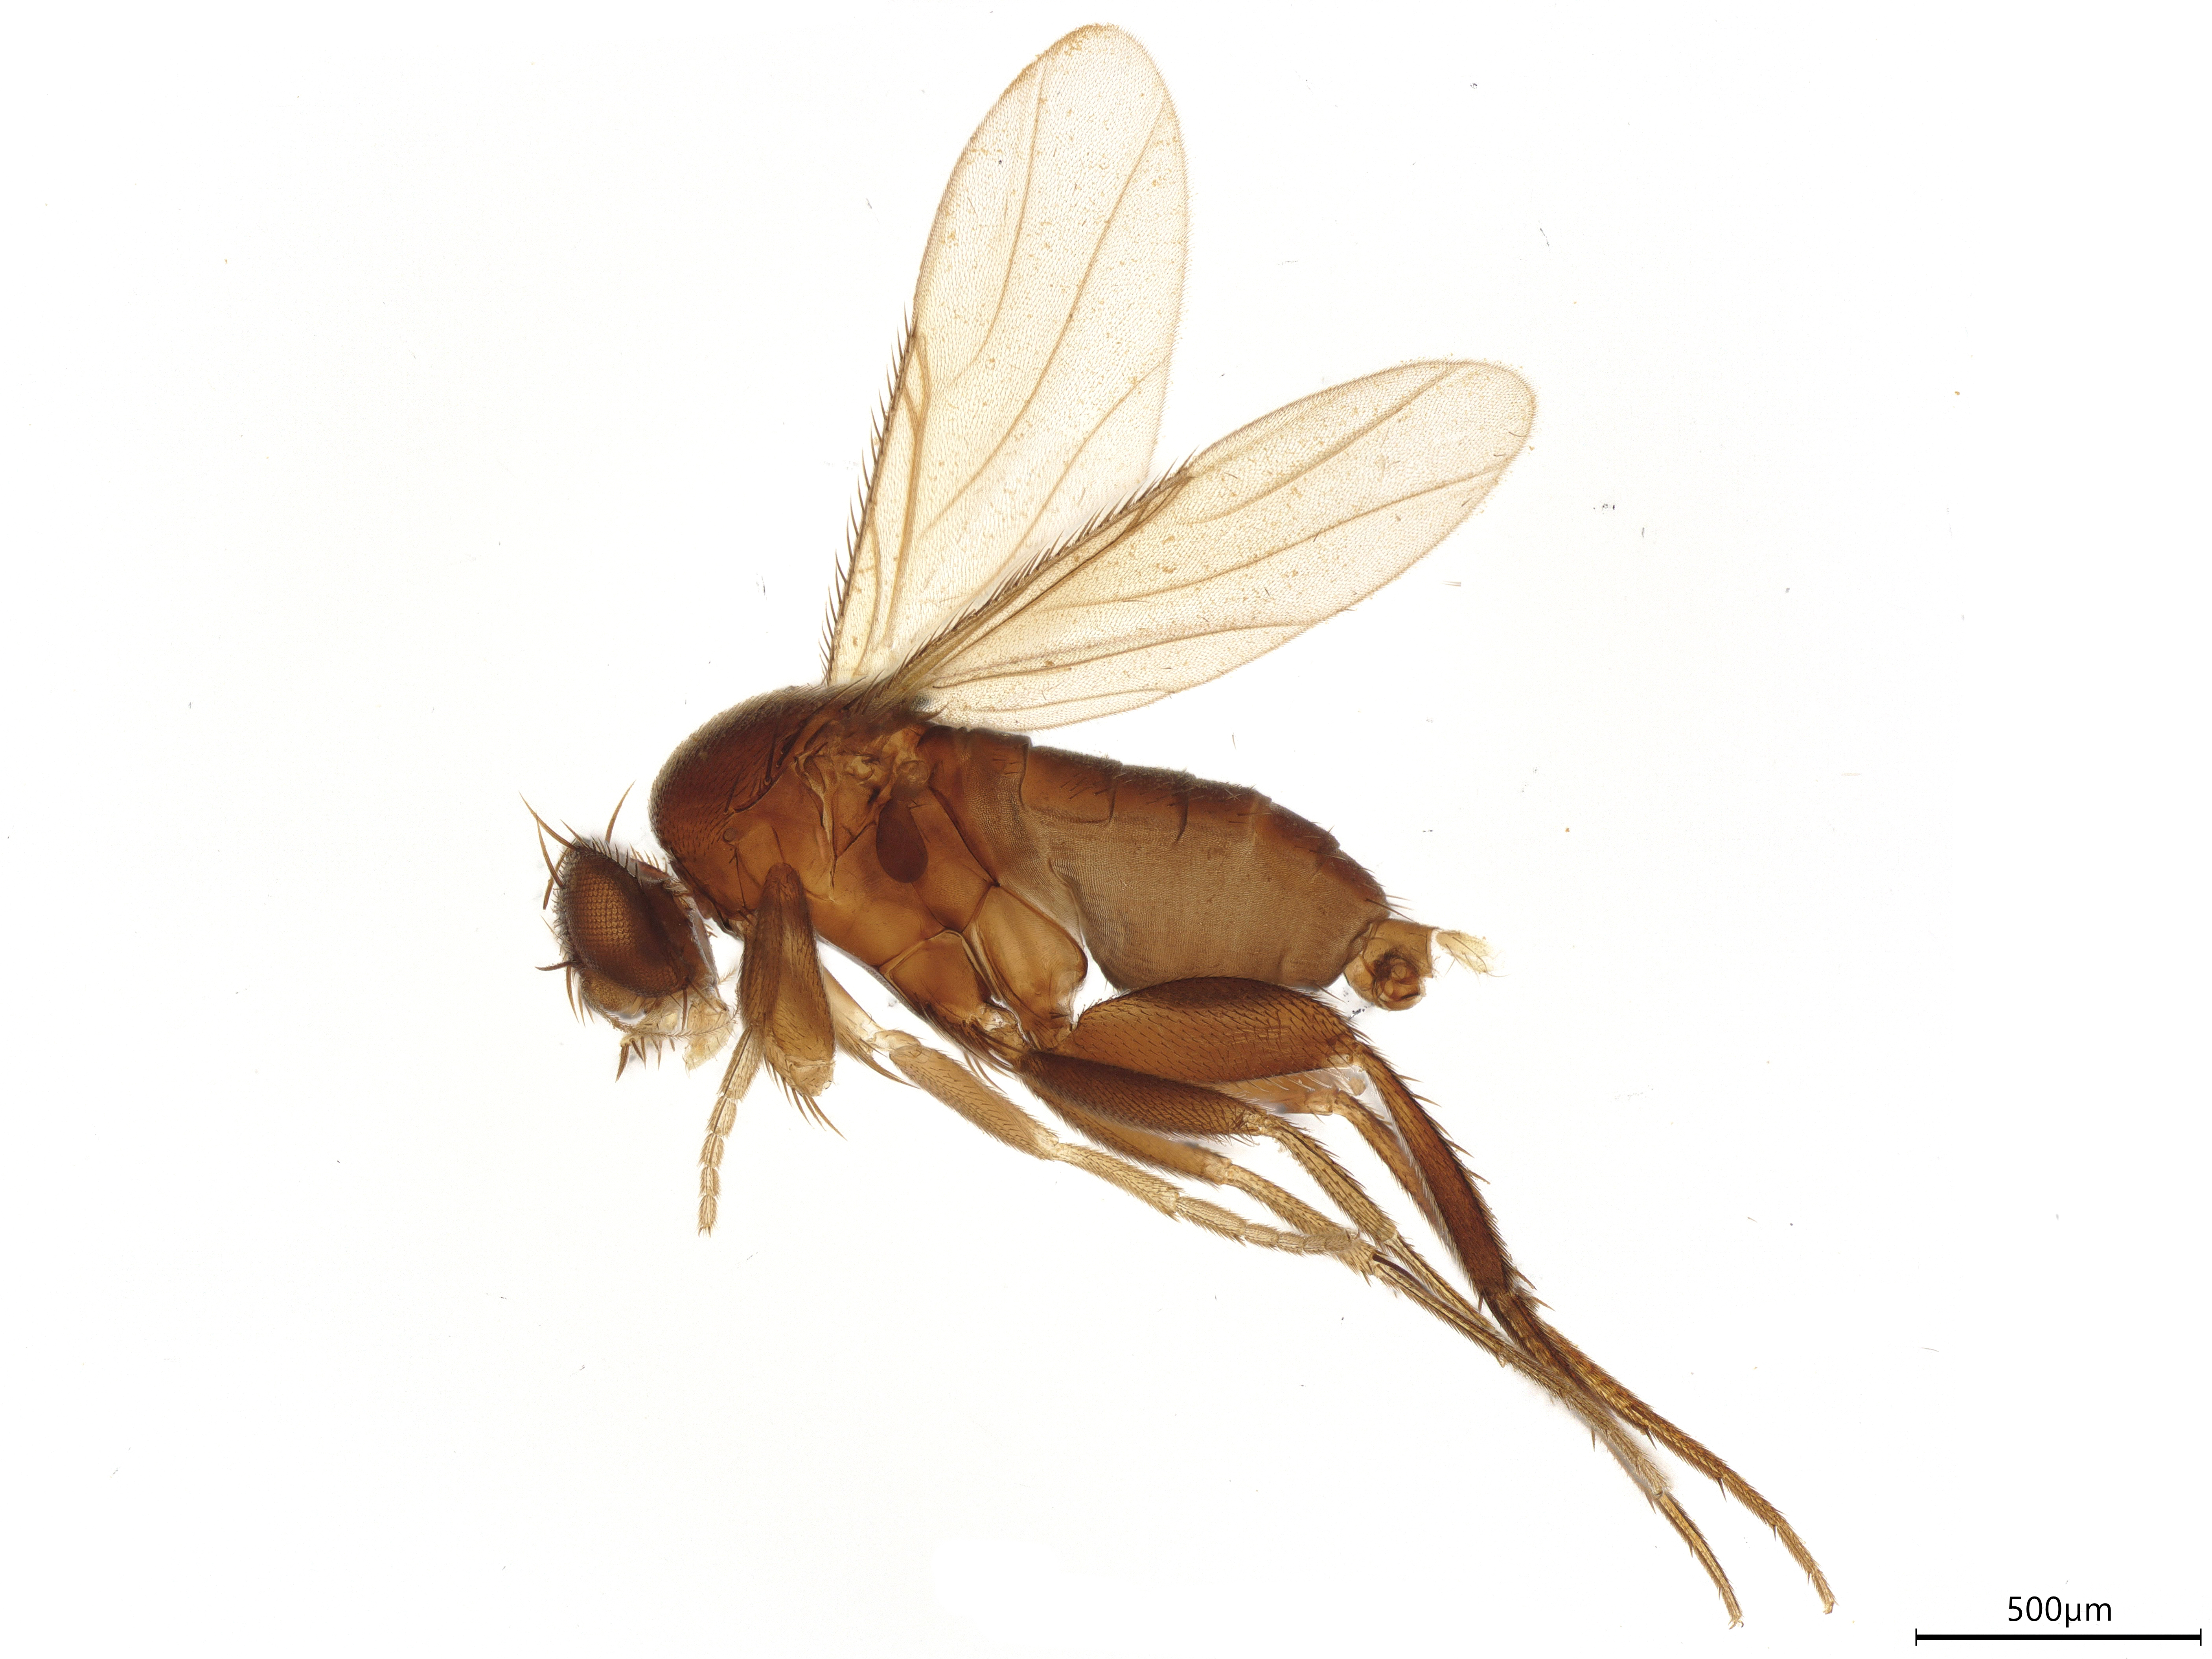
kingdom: Animalia
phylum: Arthropoda
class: Insecta
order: Diptera
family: Phoridae
